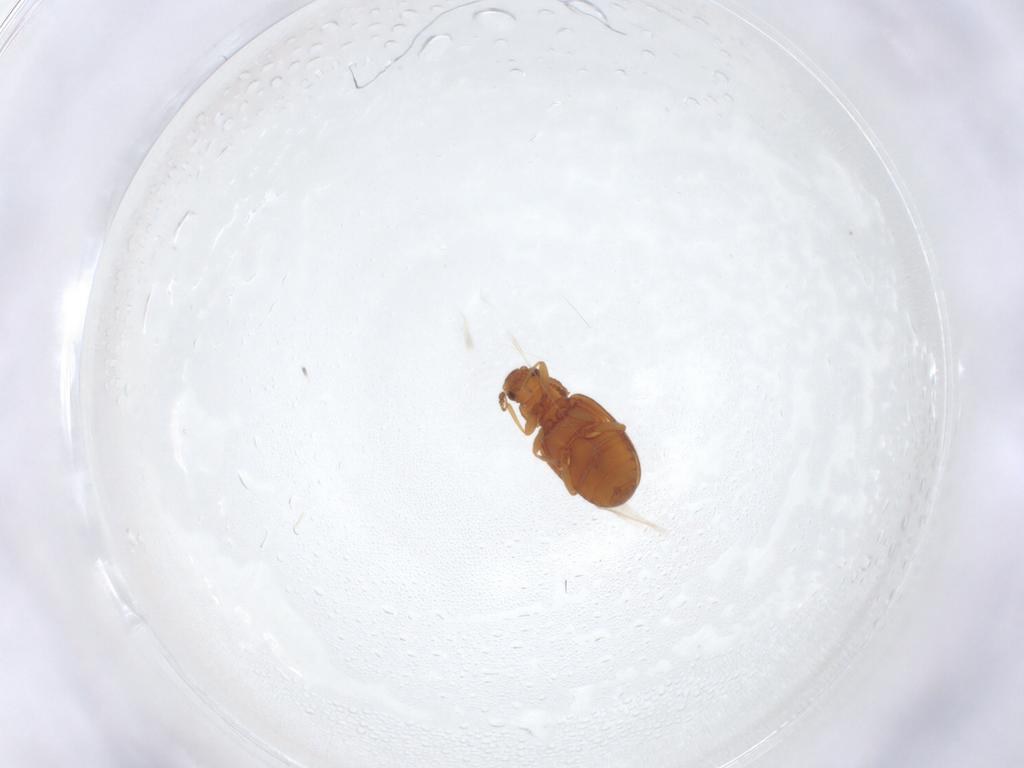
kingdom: Animalia
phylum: Arthropoda
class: Insecta
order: Coleoptera
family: Latridiidae
